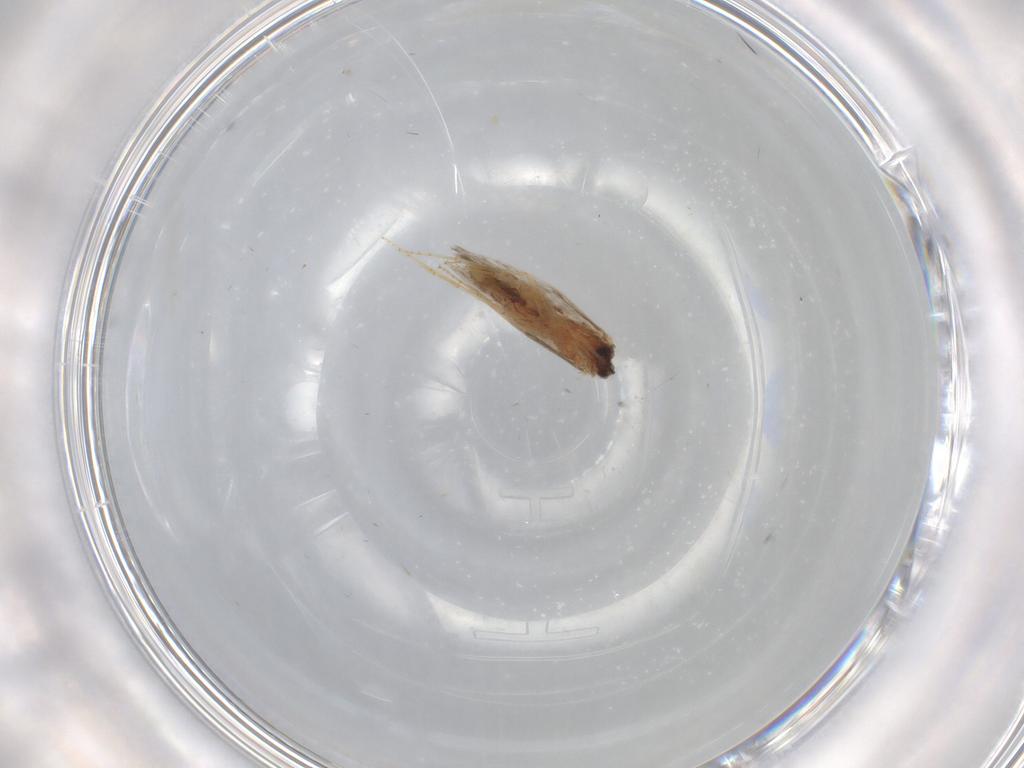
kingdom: Animalia
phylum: Arthropoda
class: Insecta
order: Trichoptera
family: Hydroptilidae
